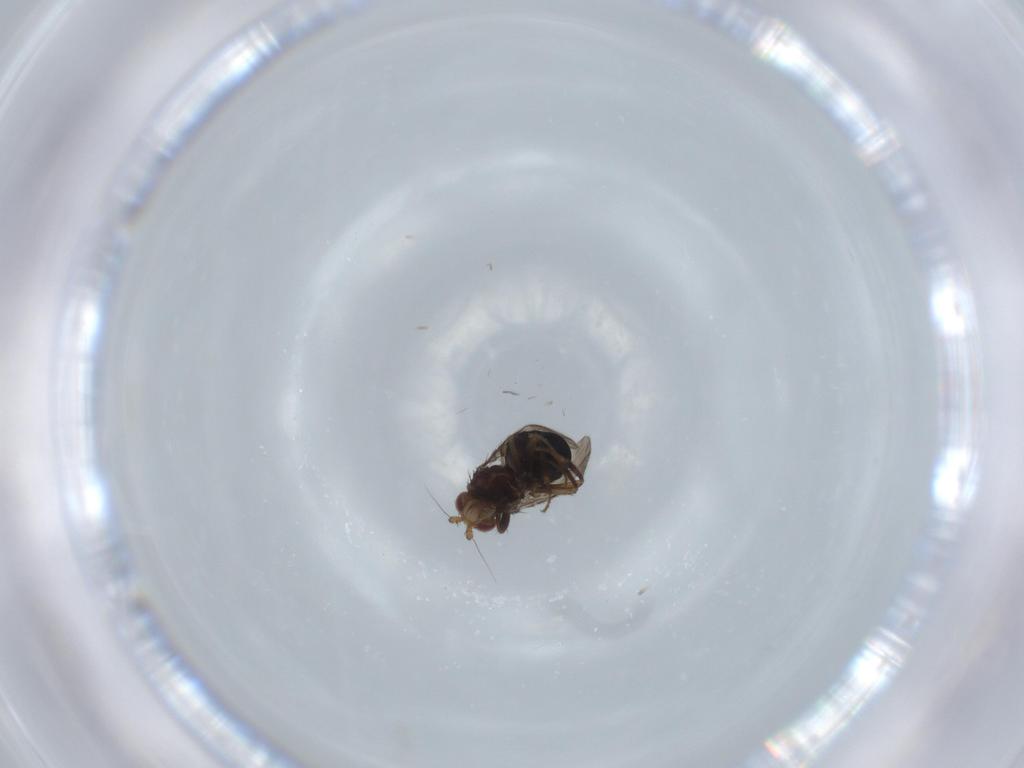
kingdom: Animalia
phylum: Arthropoda
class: Insecta
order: Diptera
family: Sphaeroceridae
